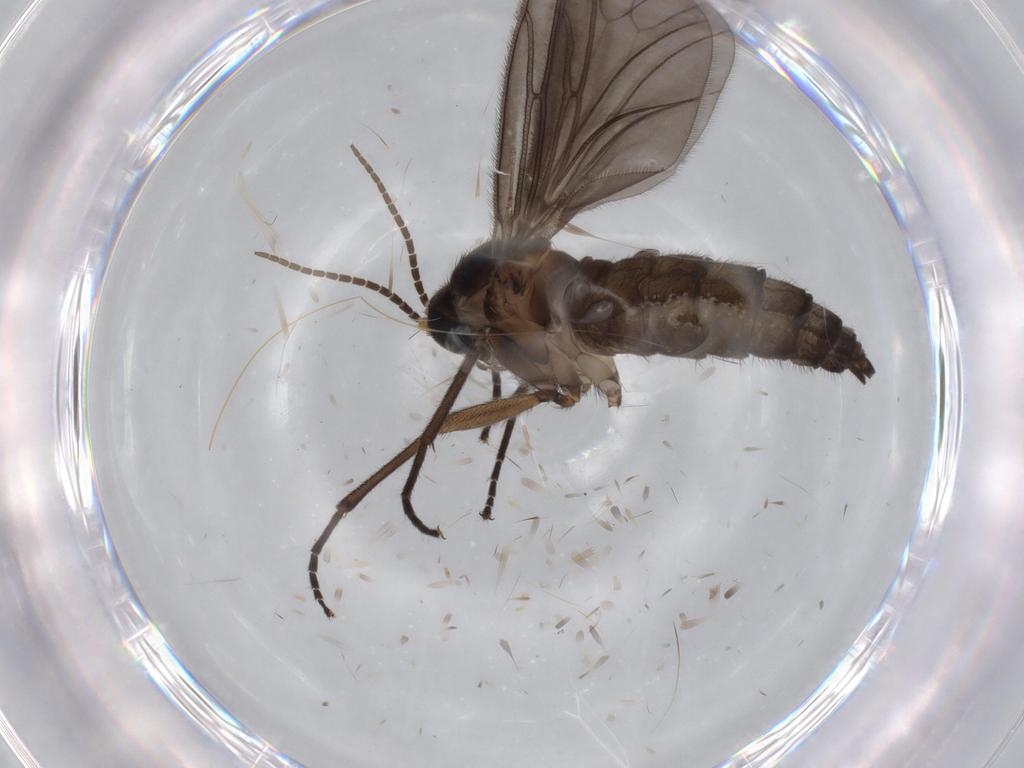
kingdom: Animalia
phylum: Arthropoda
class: Insecta
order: Diptera
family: Sciaridae
